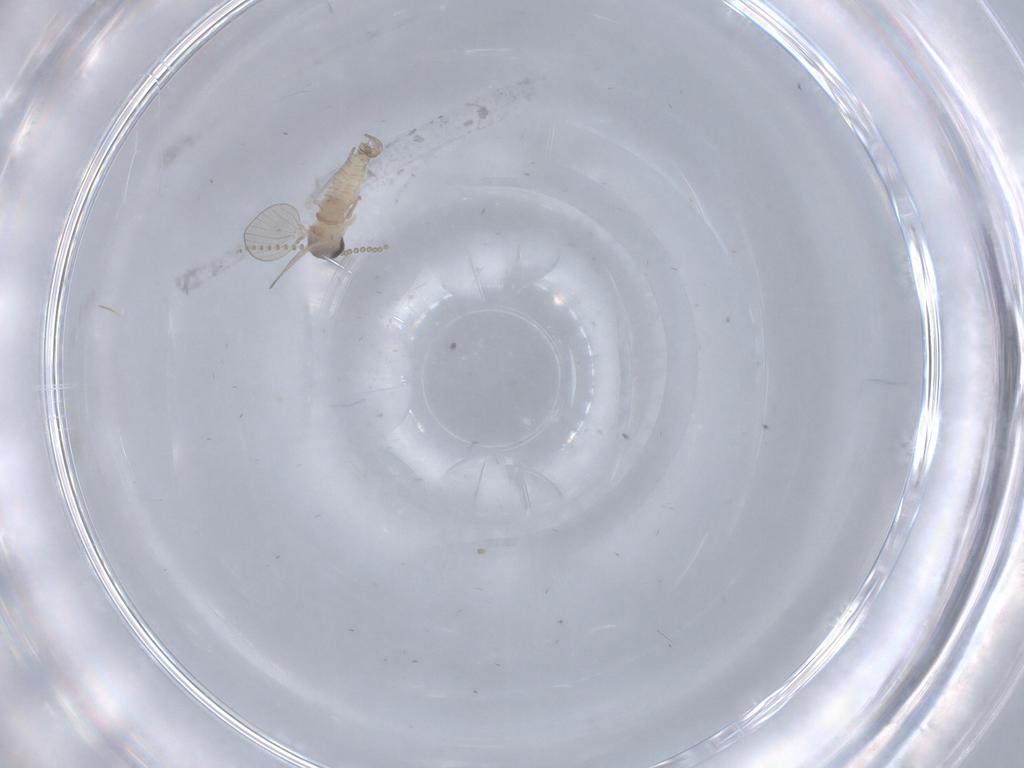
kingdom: Animalia
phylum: Arthropoda
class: Insecta
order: Diptera
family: Psychodidae
